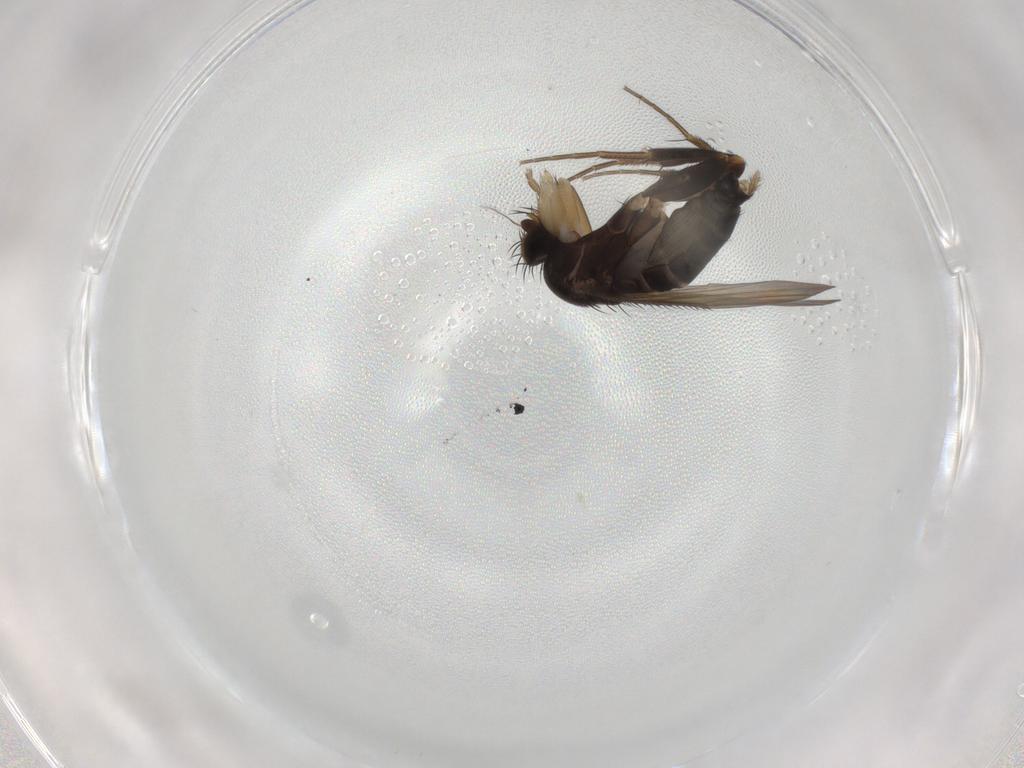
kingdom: Animalia
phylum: Arthropoda
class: Insecta
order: Diptera
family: Phoridae
